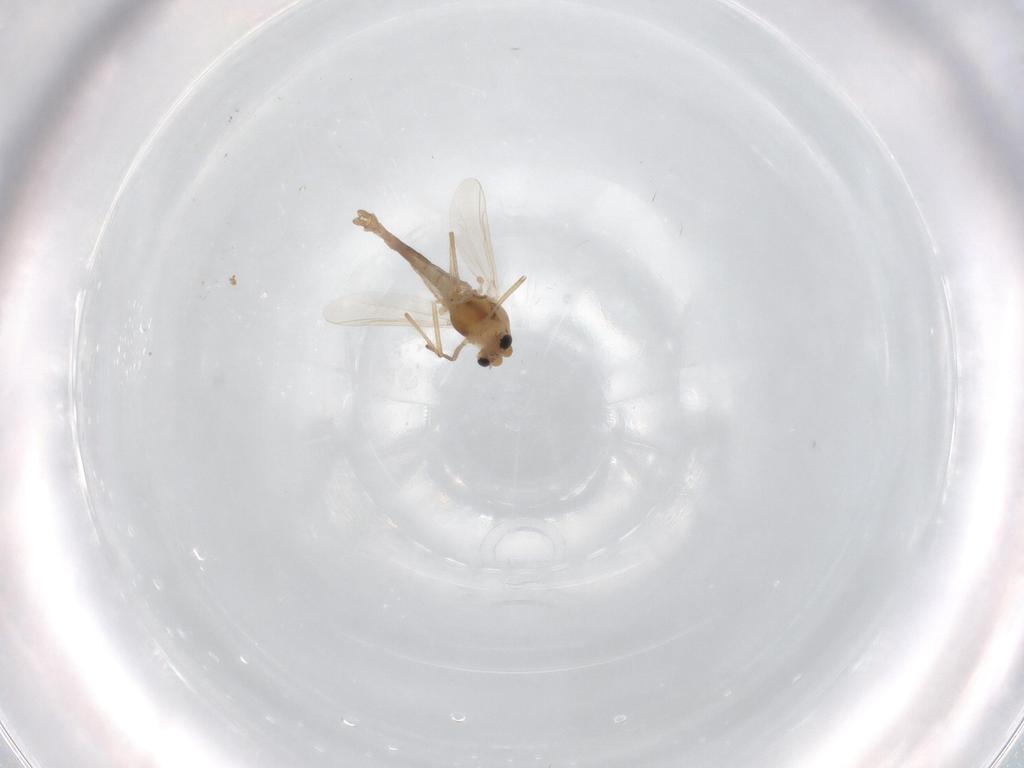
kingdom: Animalia
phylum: Arthropoda
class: Insecta
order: Diptera
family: Chironomidae
